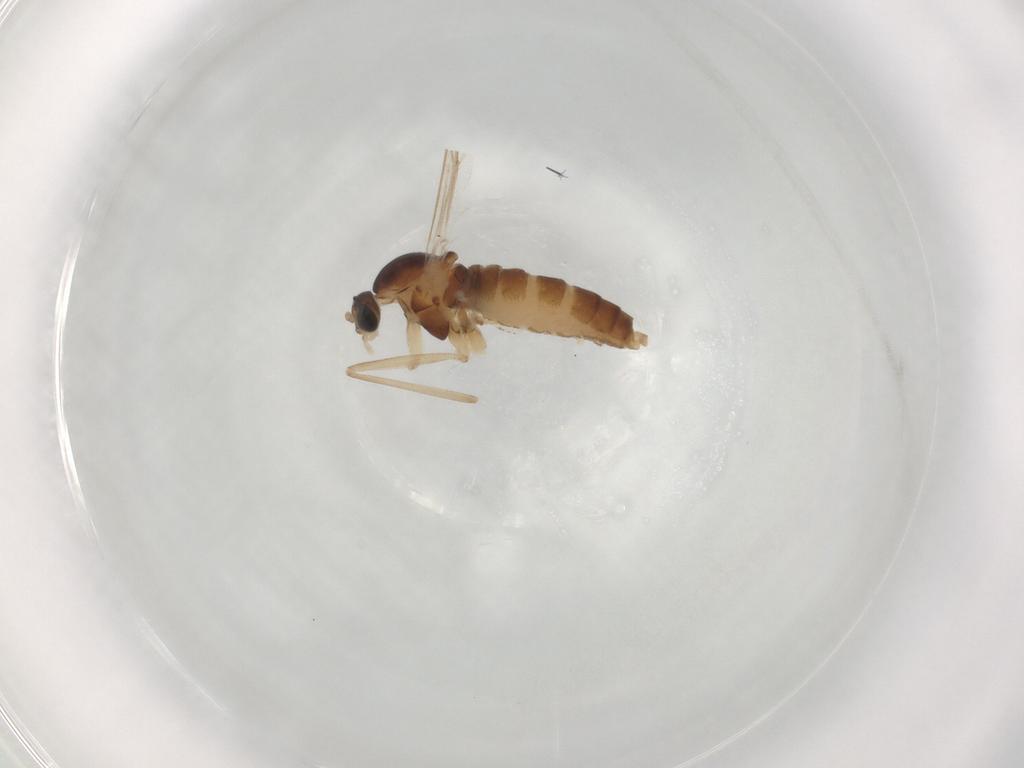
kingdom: Animalia
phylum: Arthropoda
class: Insecta
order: Diptera
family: Cecidomyiidae
